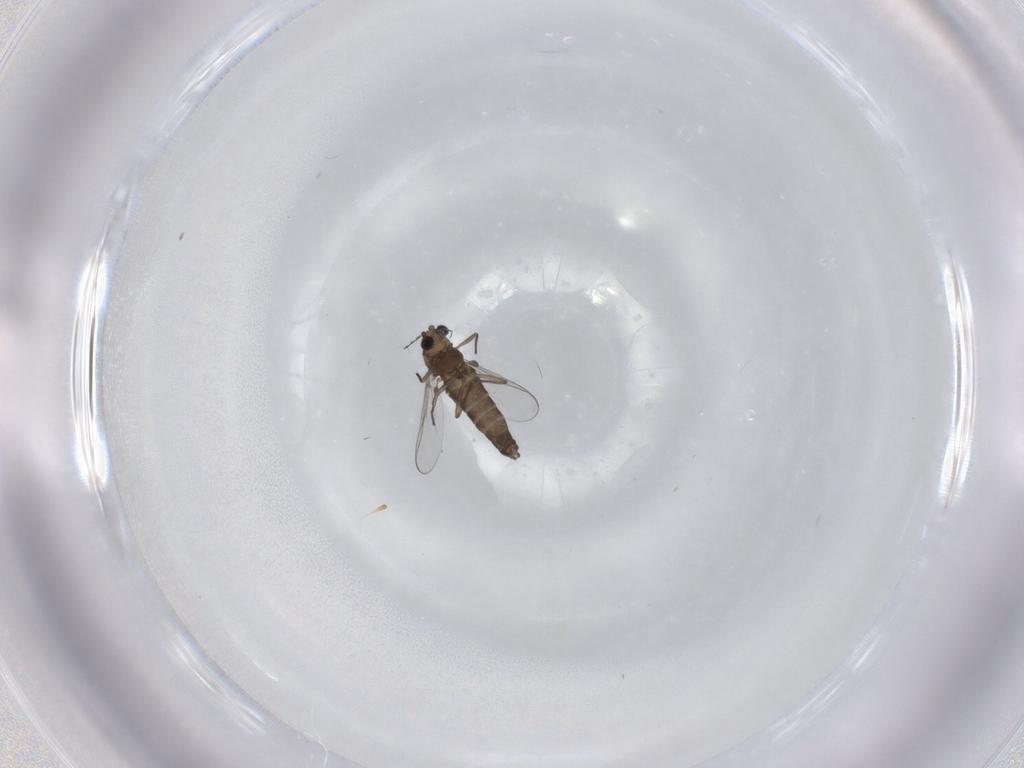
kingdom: Animalia
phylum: Arthropoda
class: Insecta
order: Diptera
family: Chironomidae
